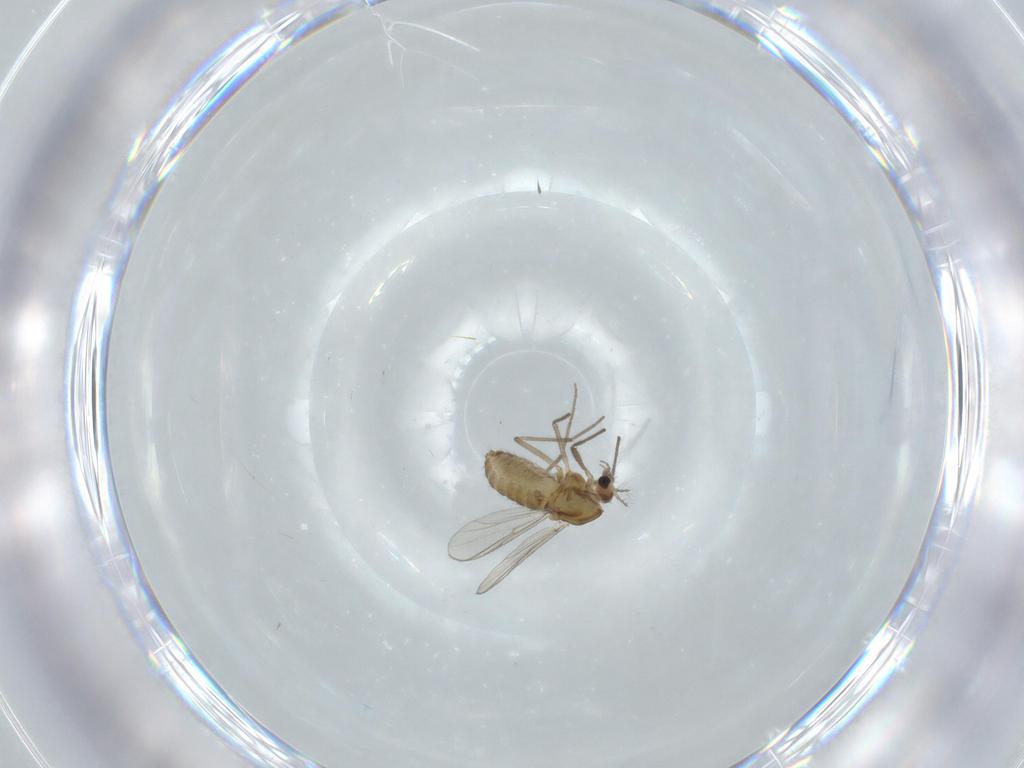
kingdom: Animalia
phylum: Arthropoda
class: Insecta
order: Diptera
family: Chironomidae
